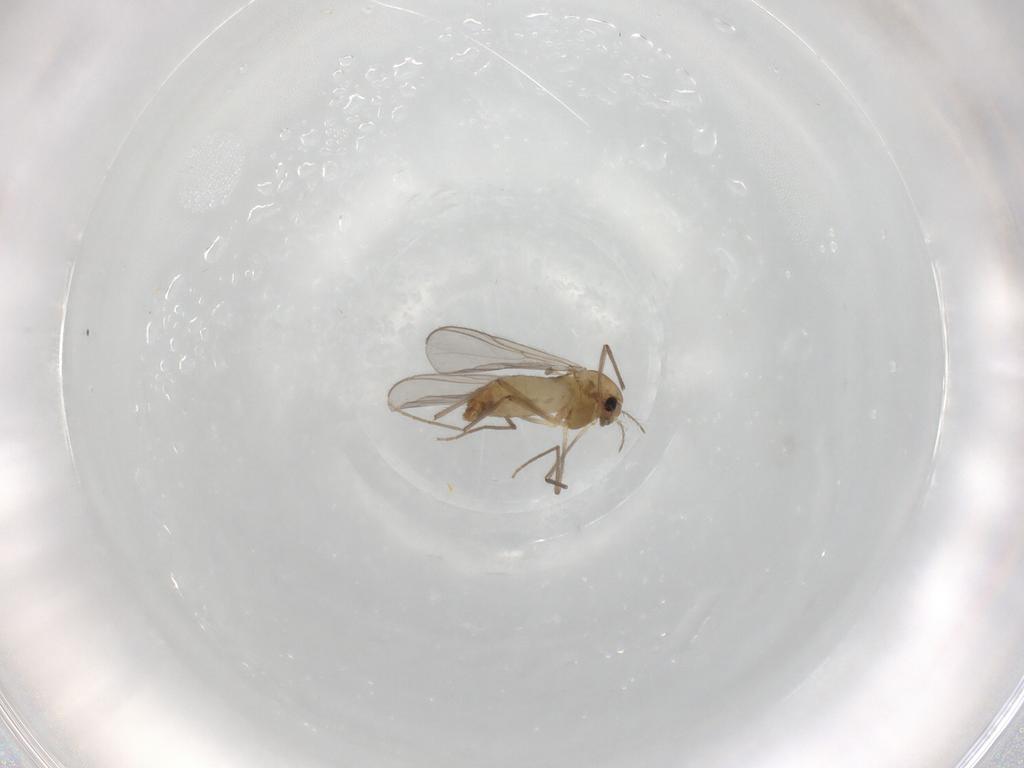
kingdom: Animalia
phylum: Arthropoda
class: Insecta
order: Diptera
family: Chironomidae
